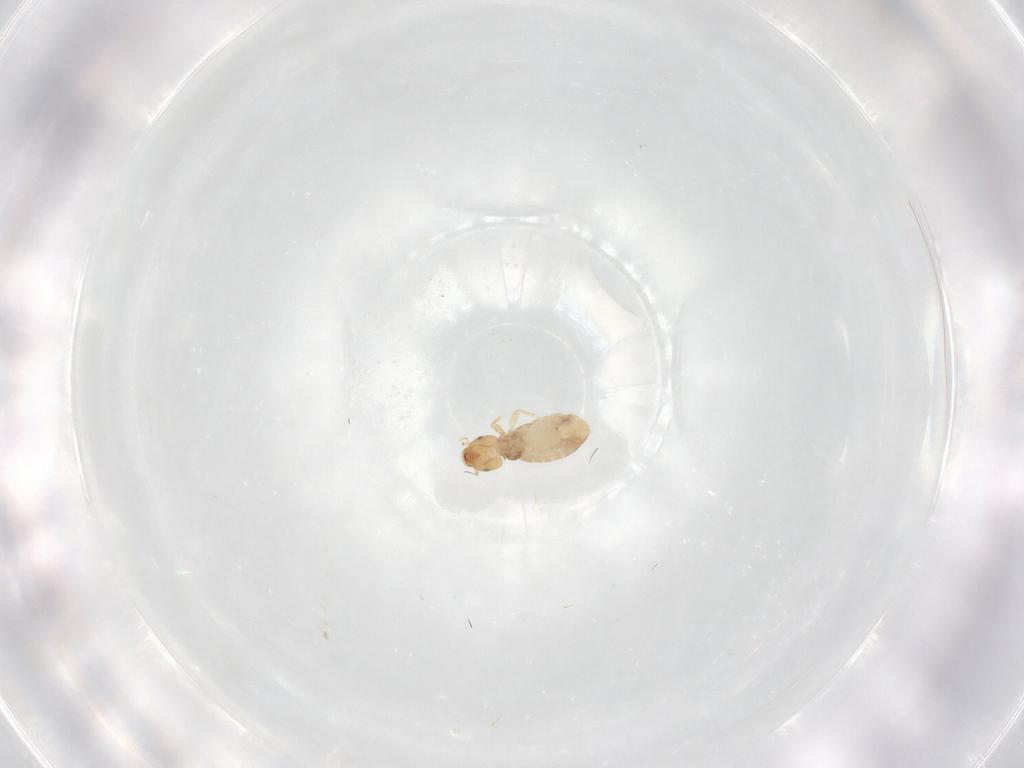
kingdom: Animalia
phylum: Arthropoda
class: Insecta
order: Psocodea
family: Liposcelididae
